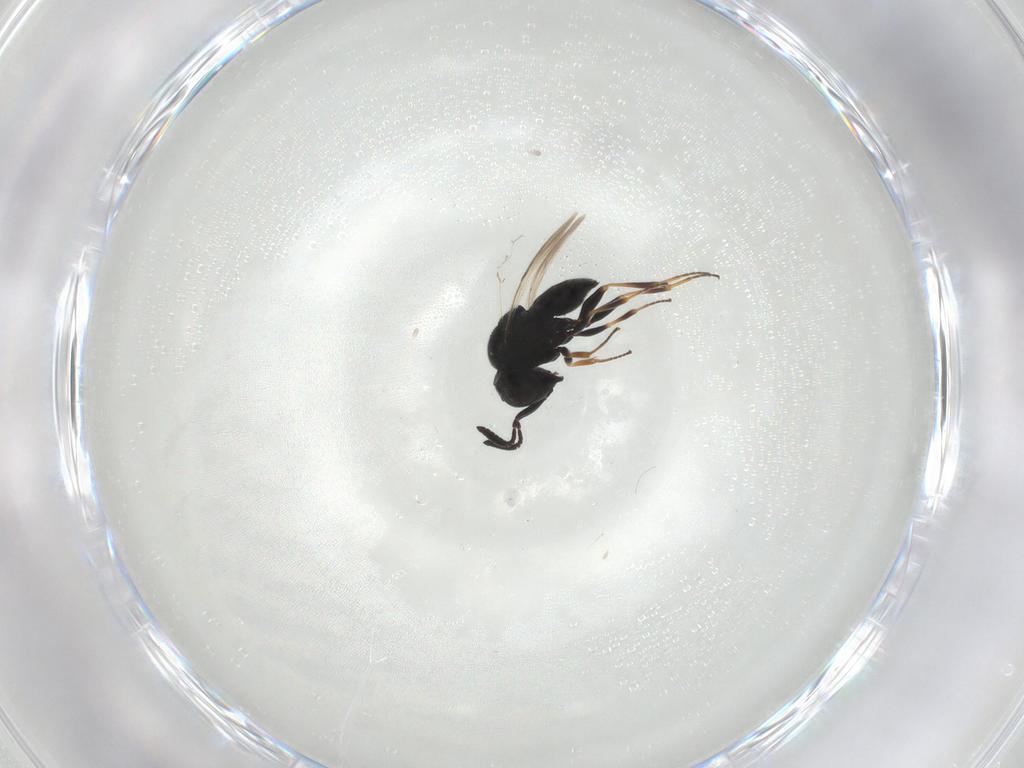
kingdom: Animalia
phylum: Arthropoda
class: Insecta
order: Hymenoptera
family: Scelionidae
